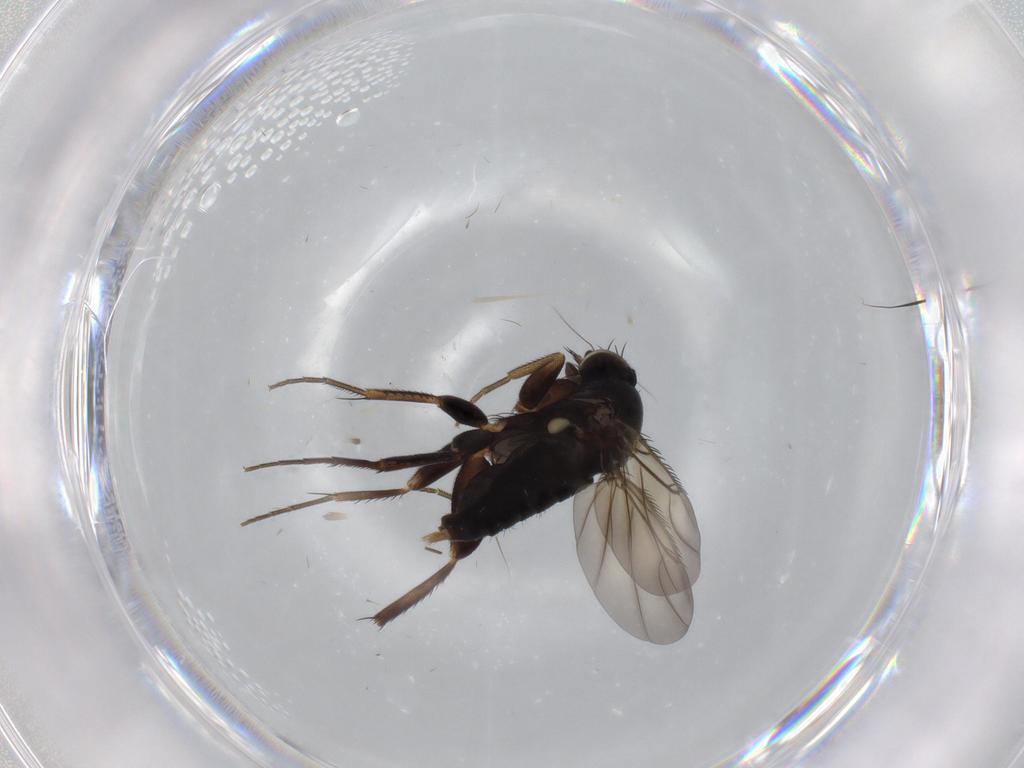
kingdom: Animalia
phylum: Arthropoda
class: Insecta
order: Diptera
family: Phoridae
